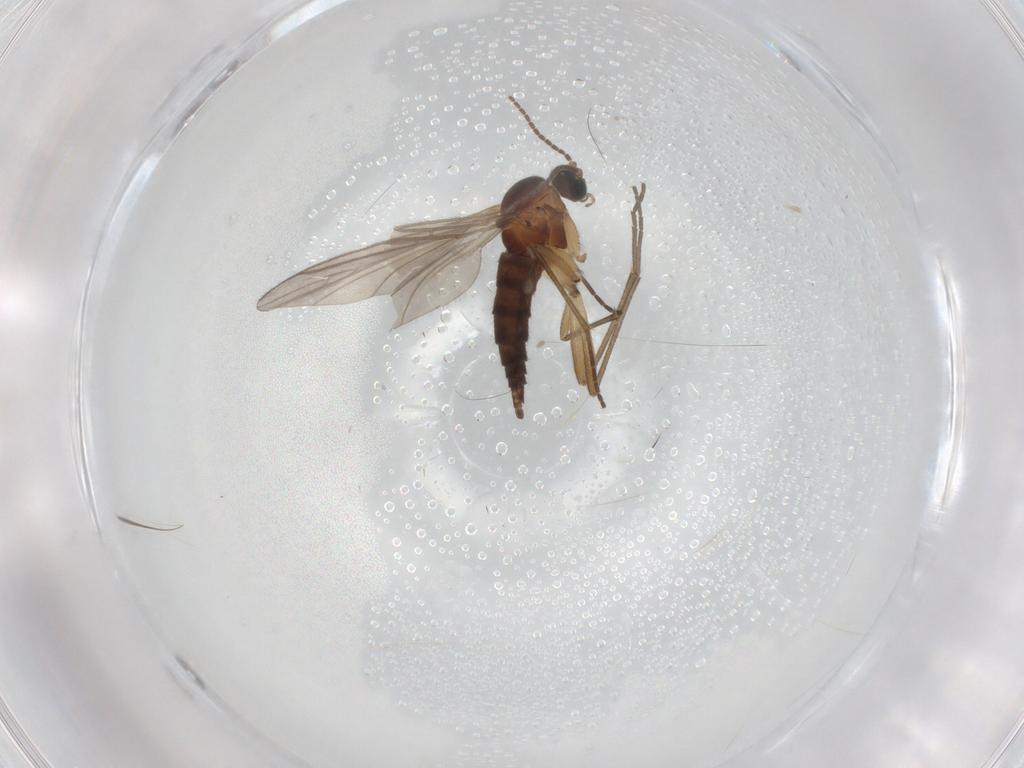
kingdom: Animalia
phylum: Arthropoda
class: Insecta
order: Diptera
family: Sciaridae
